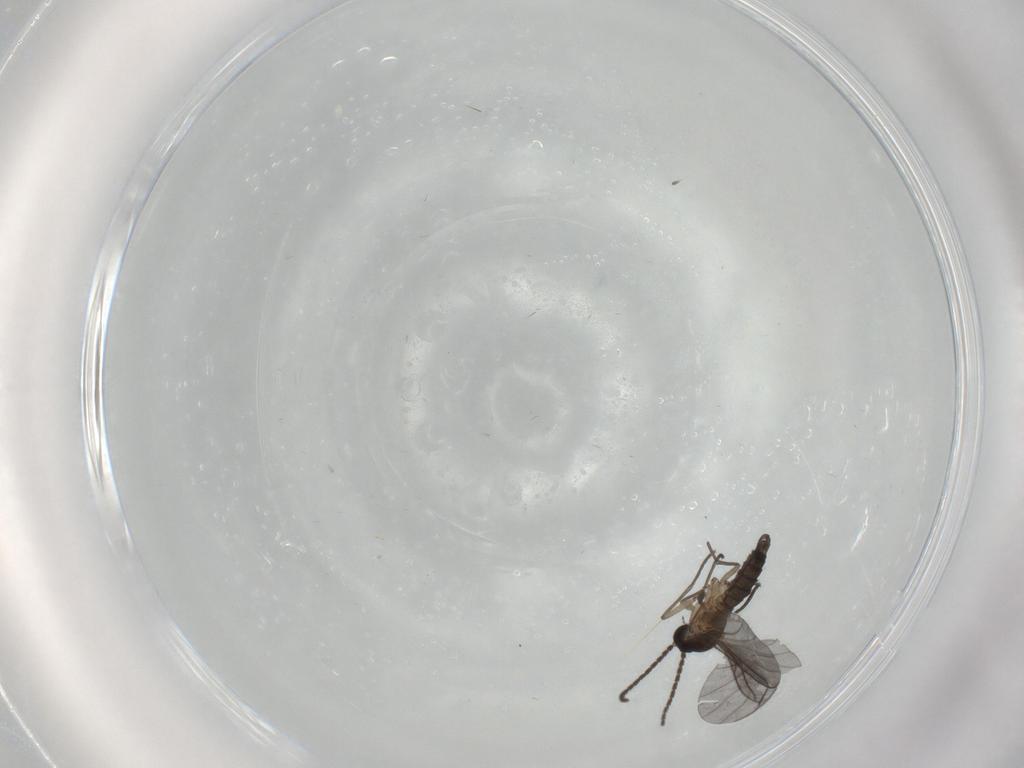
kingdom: Animalia
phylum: Arthropoda
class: Insecta
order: Diptera
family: Sciaridae
